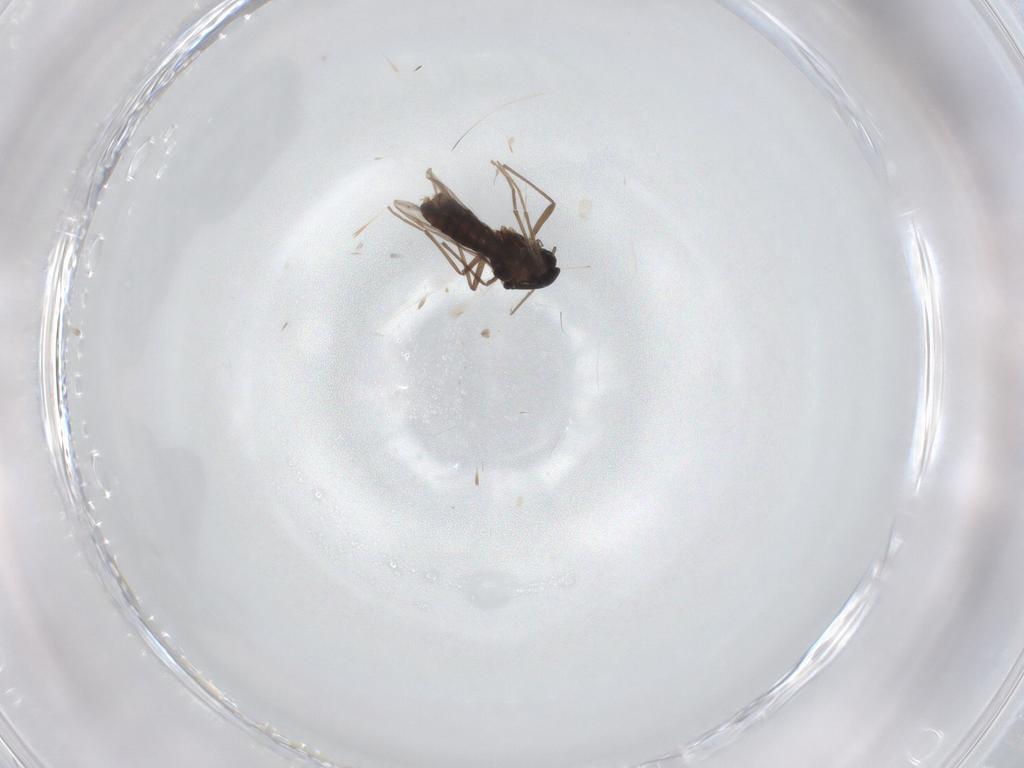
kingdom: Animalia
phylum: Arthropoda
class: Insecta
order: Diptera
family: Chironomidae
